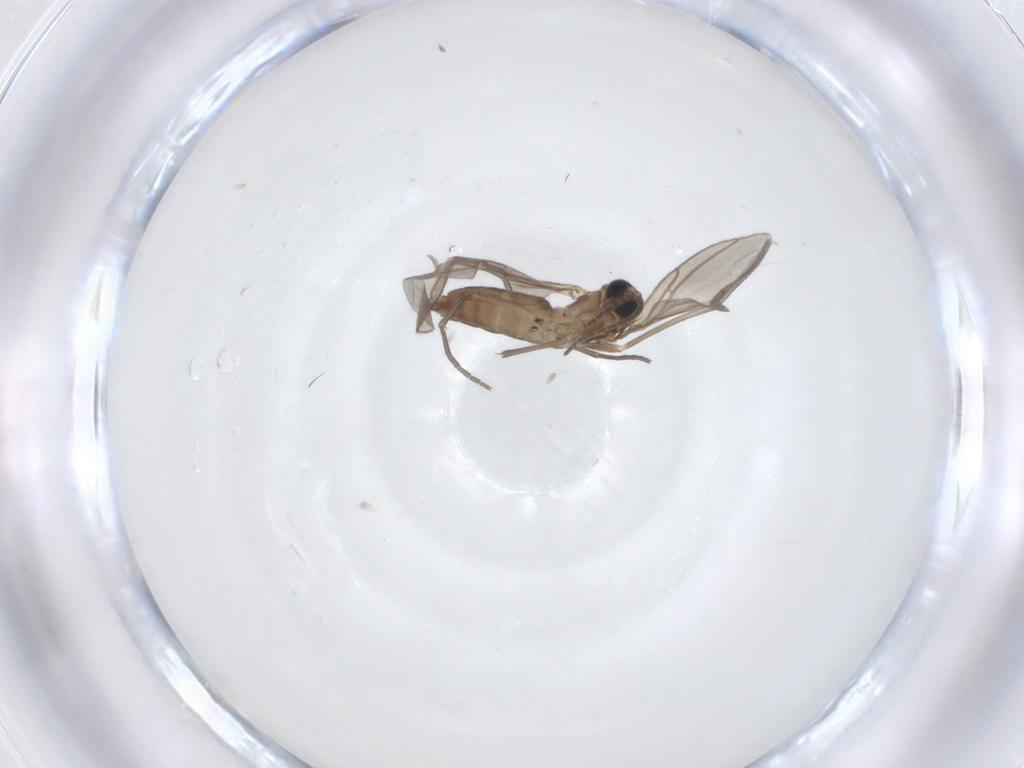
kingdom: Animalia
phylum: Arthropoda
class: Insecta
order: Diptera
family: Sciaridae
